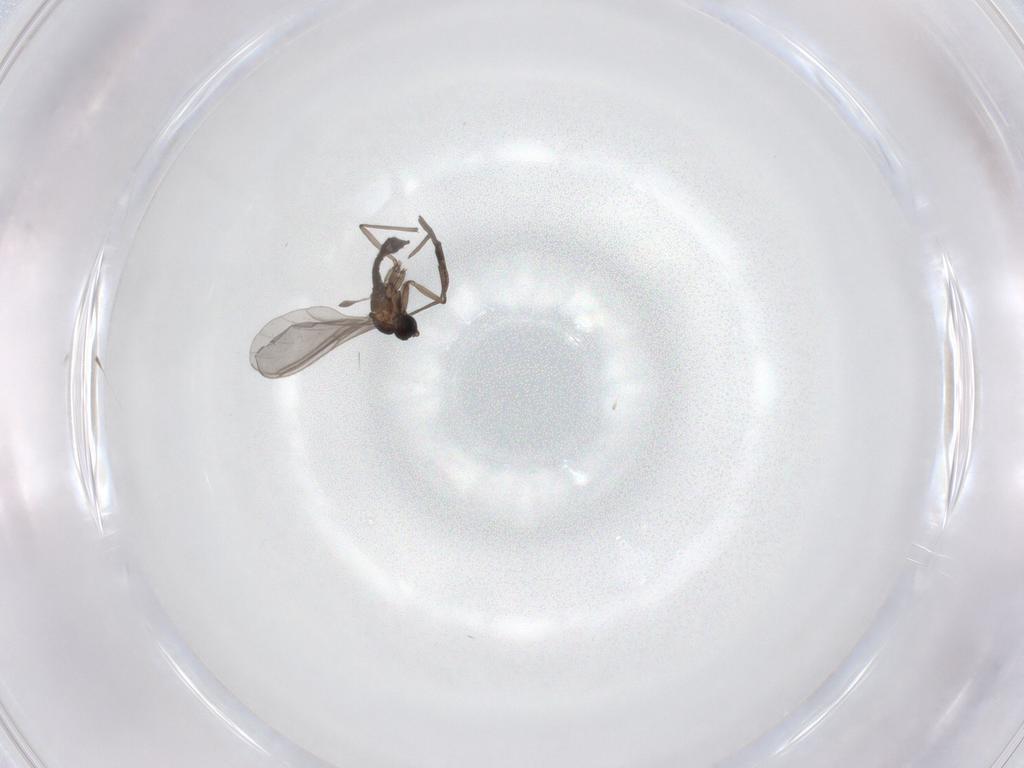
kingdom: Animalia
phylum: Arthropoda
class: Insecta
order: Diptera
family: Sciaridae
